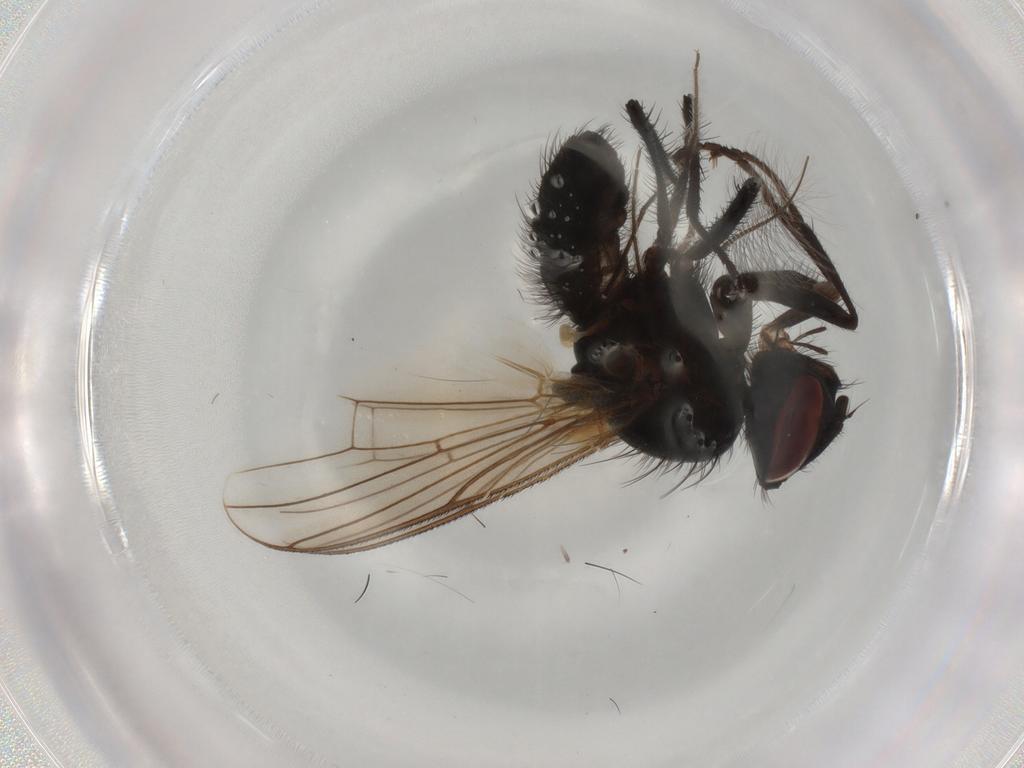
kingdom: Animalia
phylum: Arthropoda
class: Insecta
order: Diptera
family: Anthomyiidae
